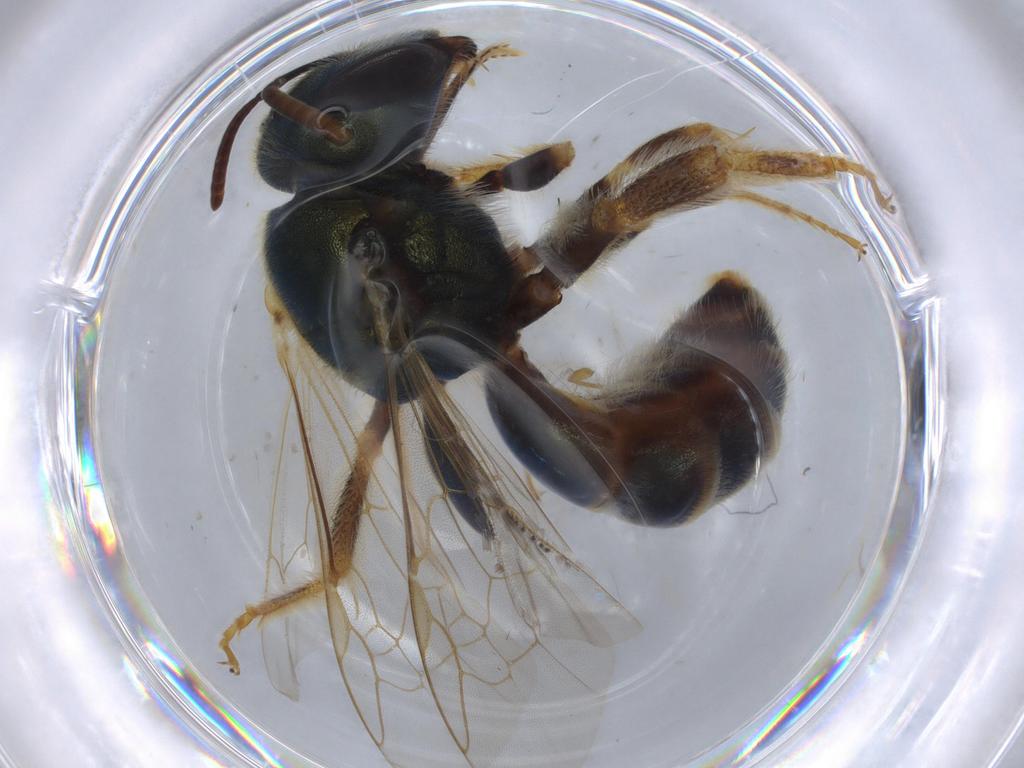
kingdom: Animalia
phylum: Arthropoda
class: Insecta
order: Hymenoptera
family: Halictidae
